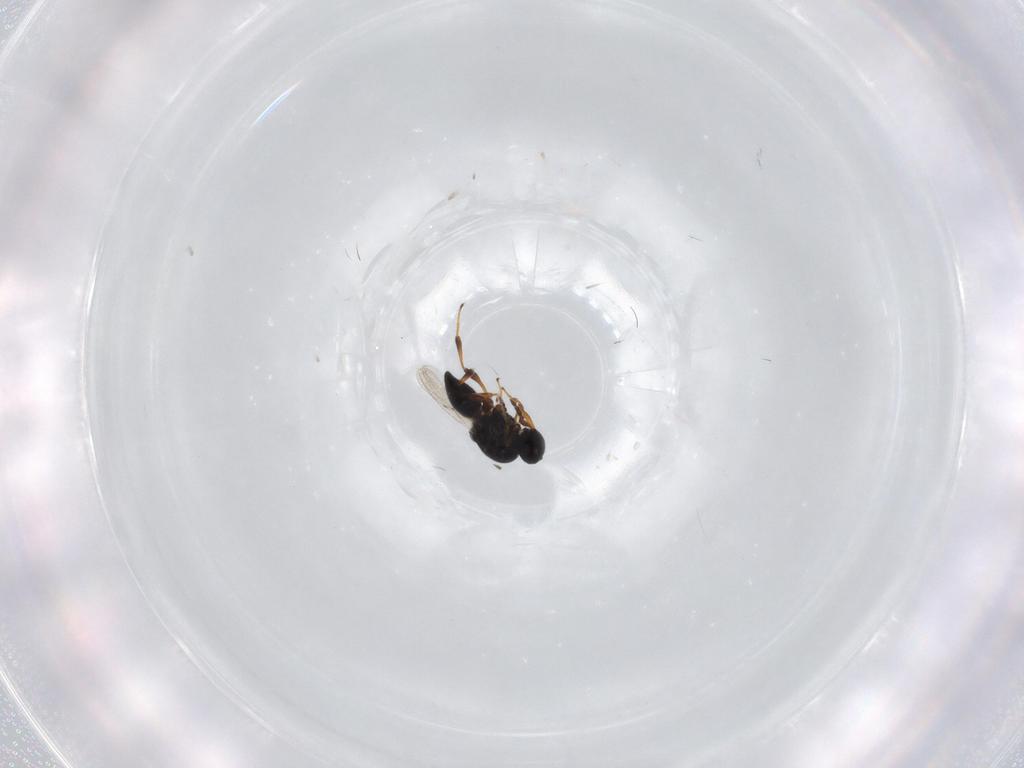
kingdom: Animalia
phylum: Arthropoda
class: Insecta
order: Hymenoptera
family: Platygastridae
